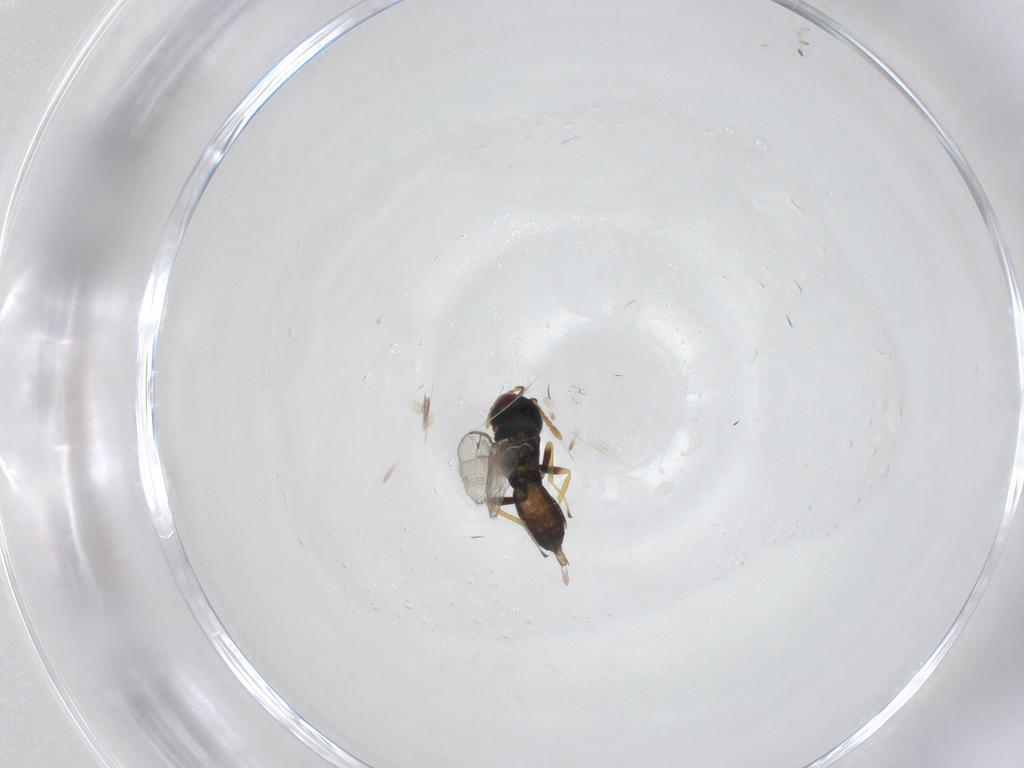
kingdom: Animalia
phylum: Arthropoda
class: Insecta
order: Hymenoptera
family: Pteromalidae
